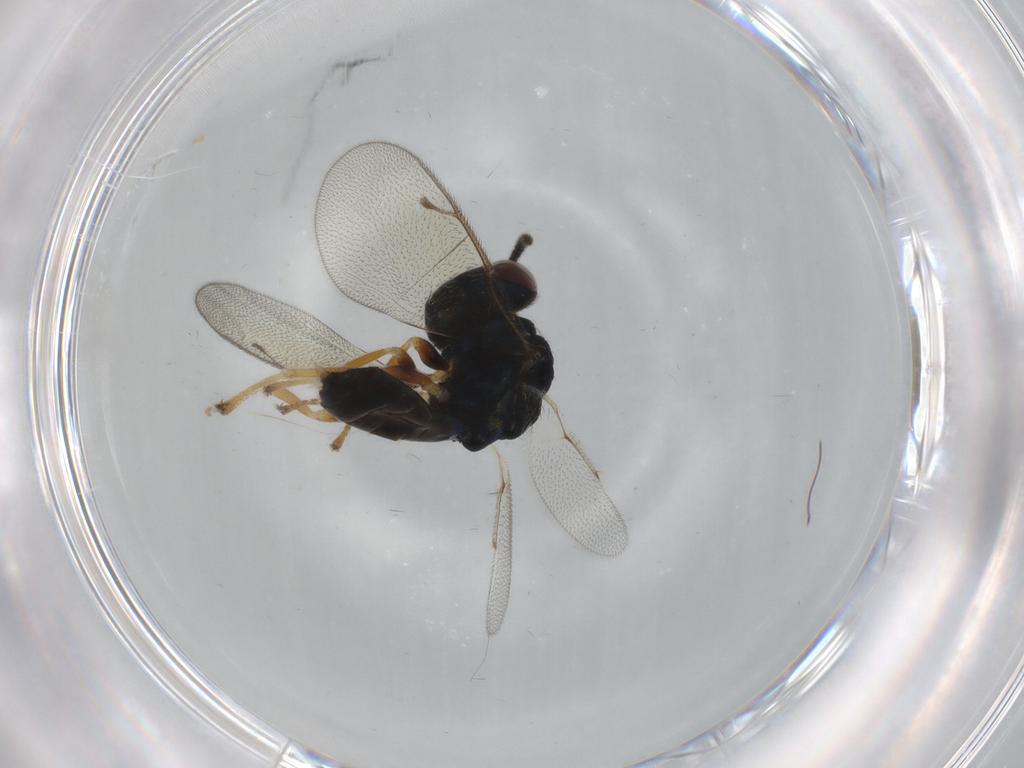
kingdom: Animalia
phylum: Arthropoda
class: Insecta
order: Hymenoptera
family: Pteromalidae
